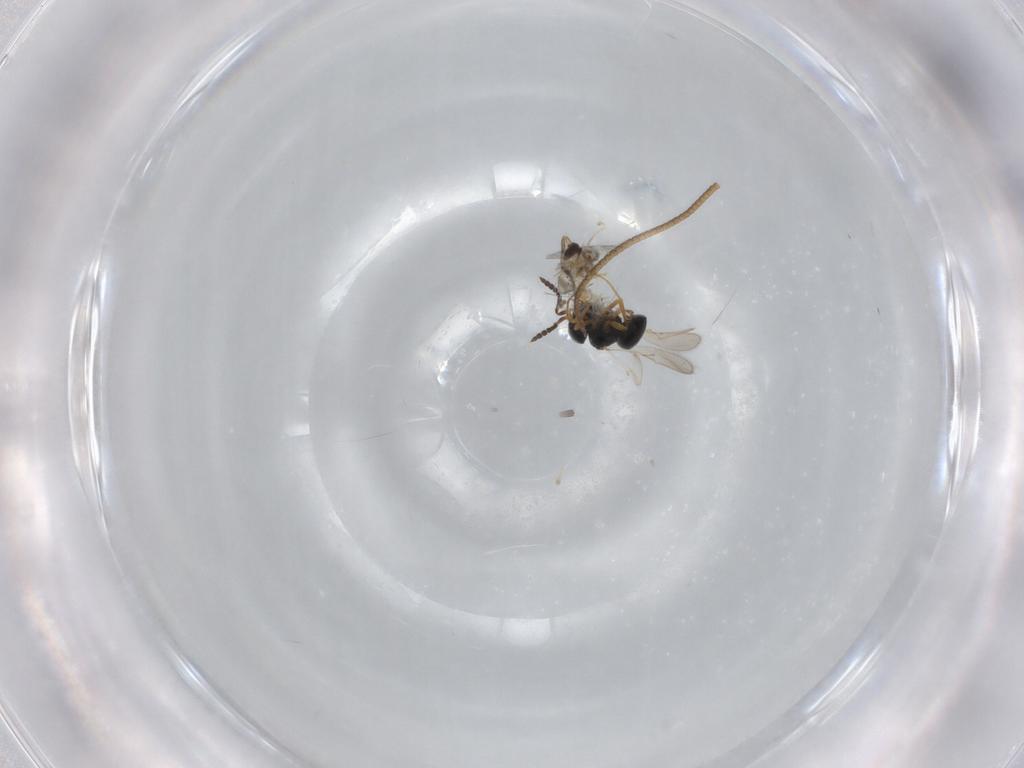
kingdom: Animalia
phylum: Arthropoda
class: Insecta
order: Hymenoptera
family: Scelionidae
